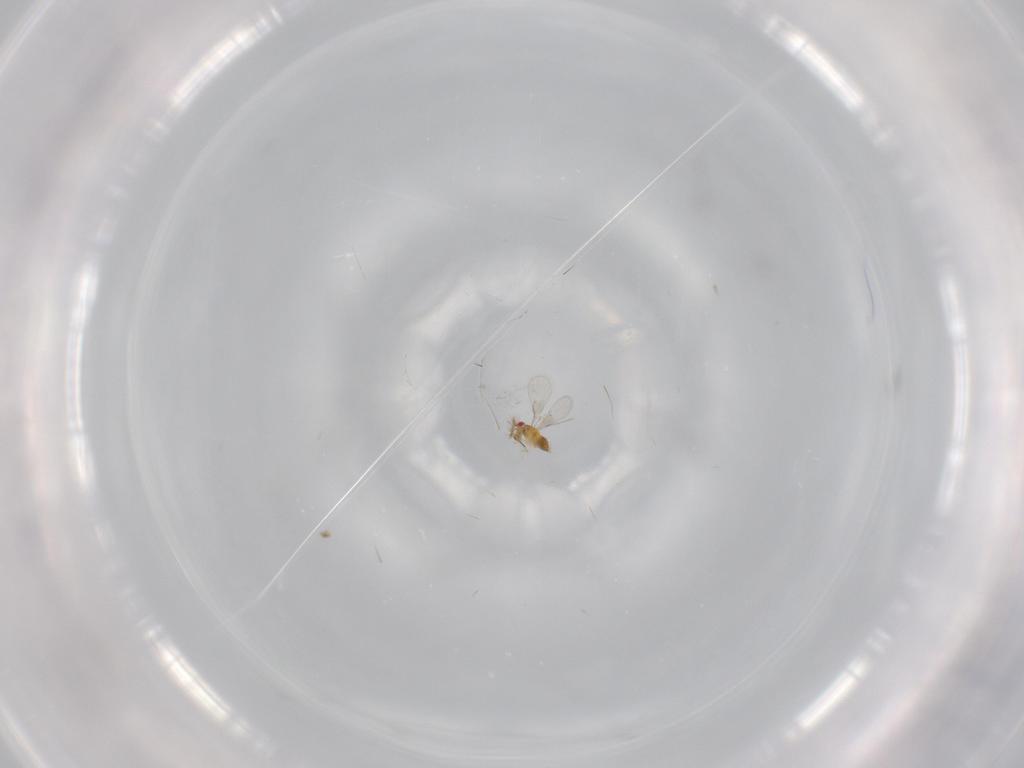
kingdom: Animalia
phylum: Arthropoda
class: Insecta
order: Hymenoptera
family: Trichogrammatidae
